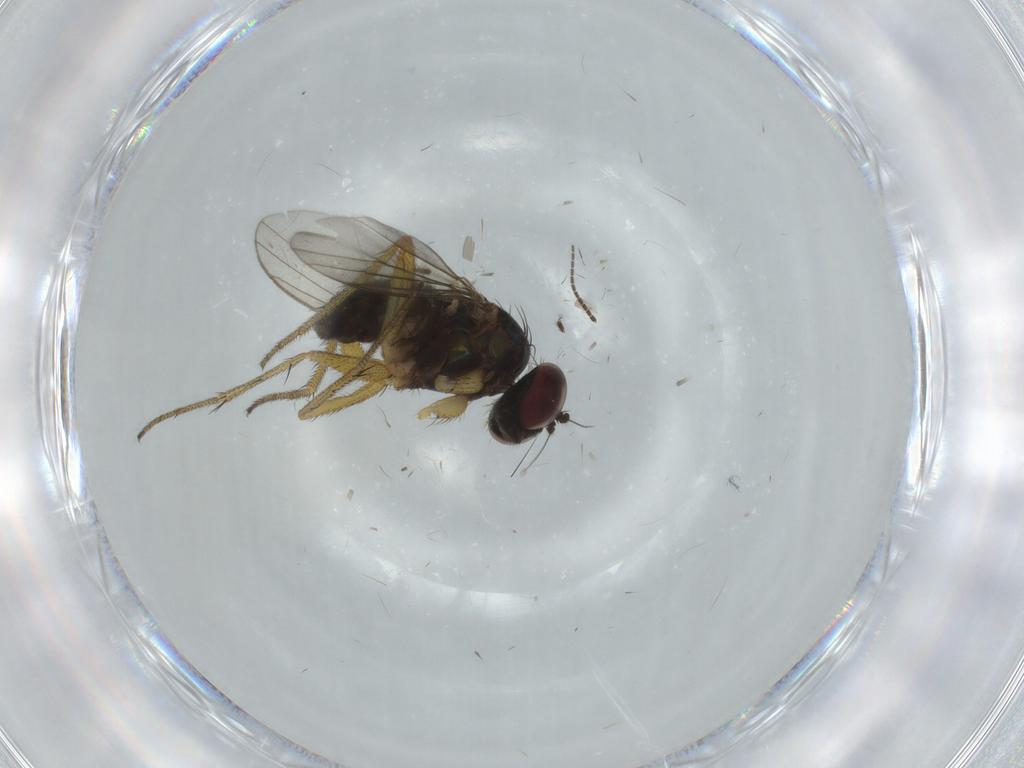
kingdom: Animalia
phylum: Arthropoda
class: Insecta
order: Diptera
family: Dolichopodidae
